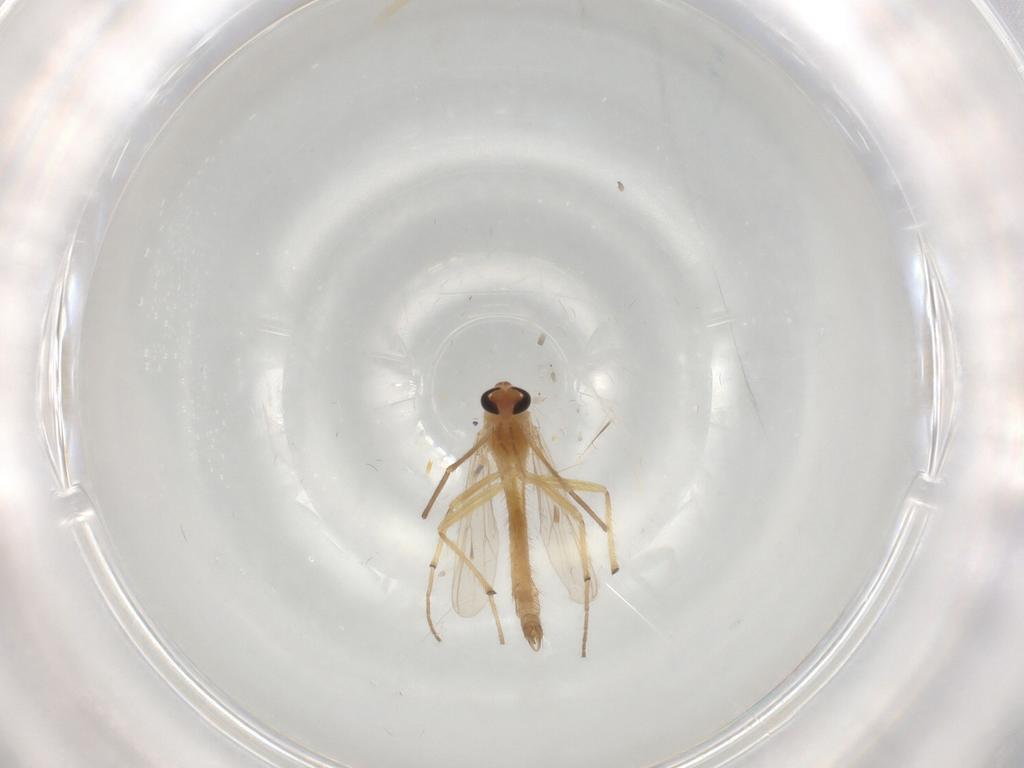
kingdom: Animalia
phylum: Arthropoda
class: Insecta
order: Diptera
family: Chironomidae
